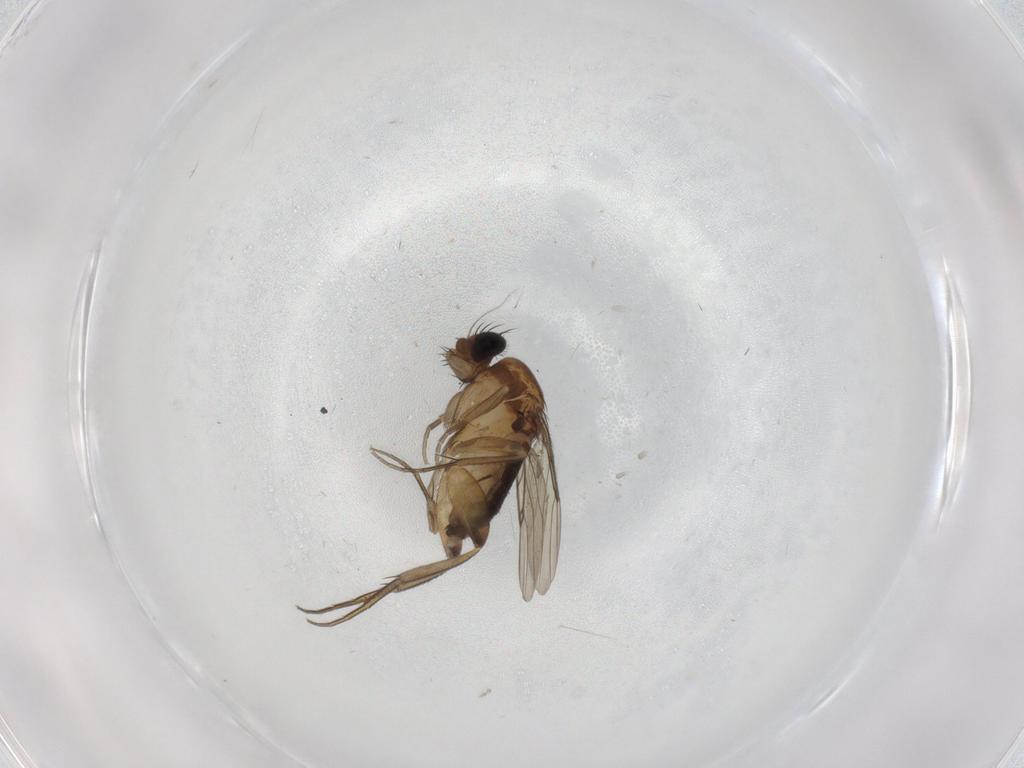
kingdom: Animalia
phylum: Arthropoda
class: Insecta
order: Diptera
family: Phoridae
